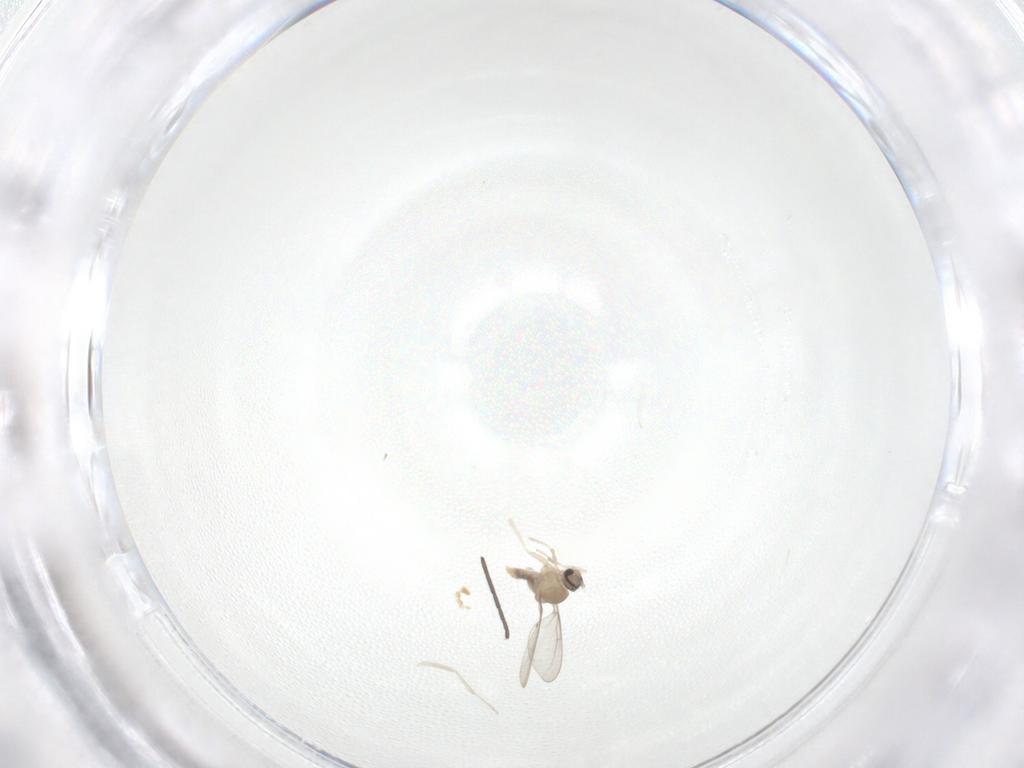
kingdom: Animalia
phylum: Arthropoda
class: Insecta
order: Diptera
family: Cecidomyiidae
